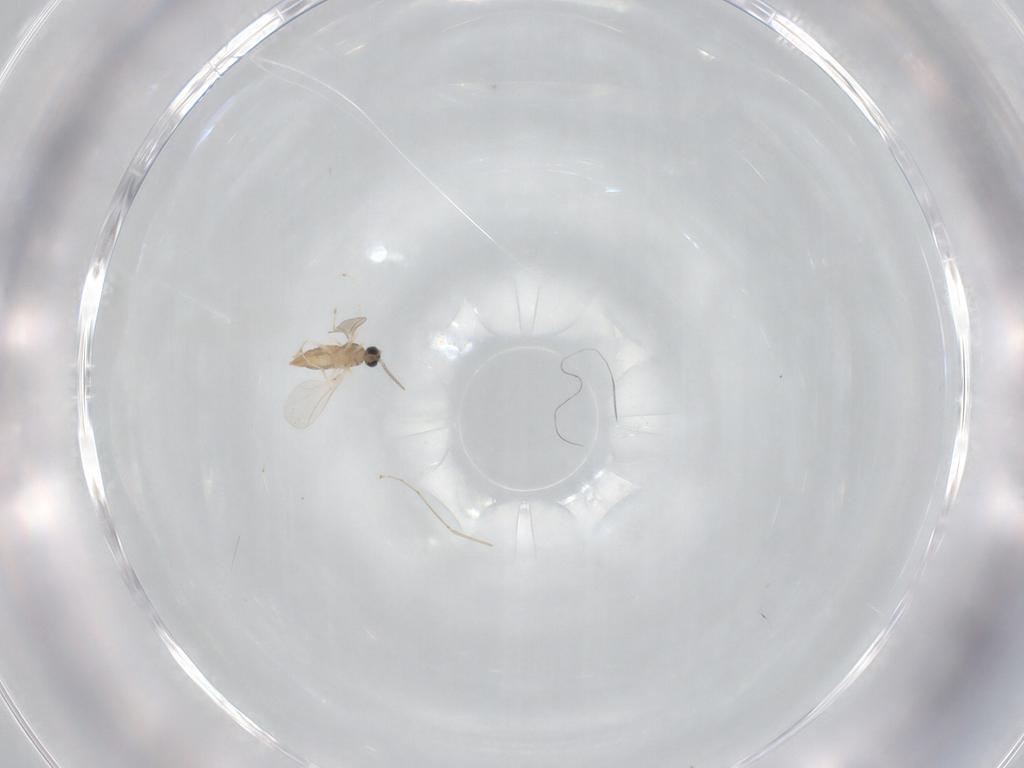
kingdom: Animalia
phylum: Arthropoda
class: Insecta
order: Diptera
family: Cecidomyiidae
